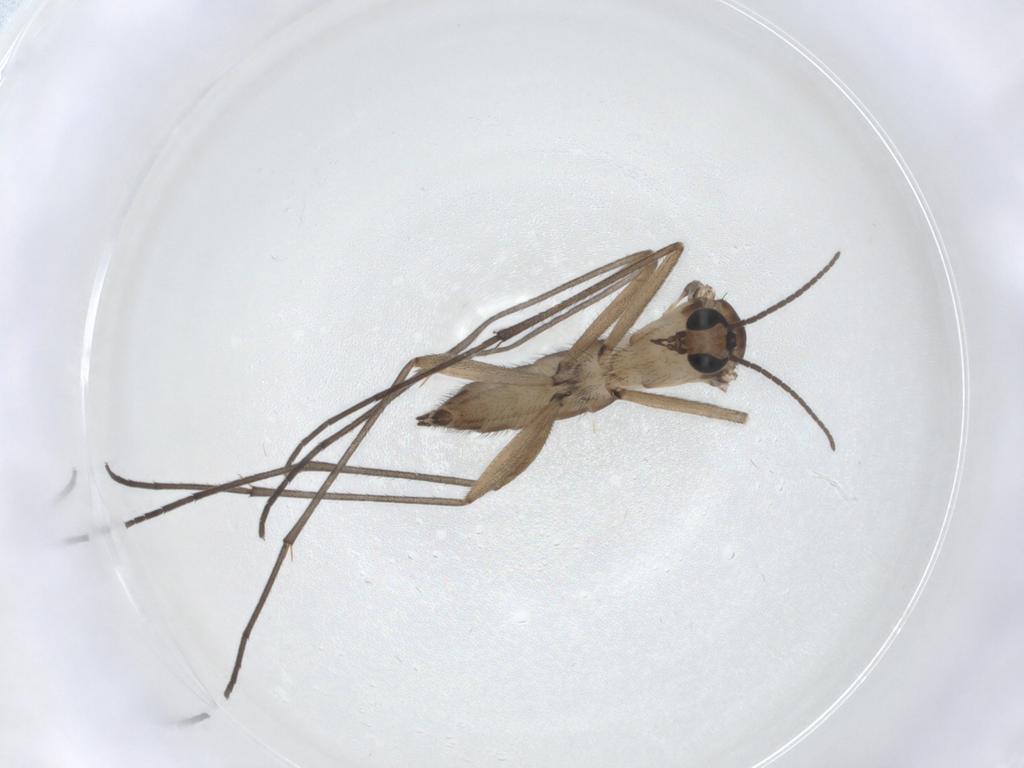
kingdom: Animalia
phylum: Arthropoda
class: Insecta
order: Diptera
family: Sciaridae
